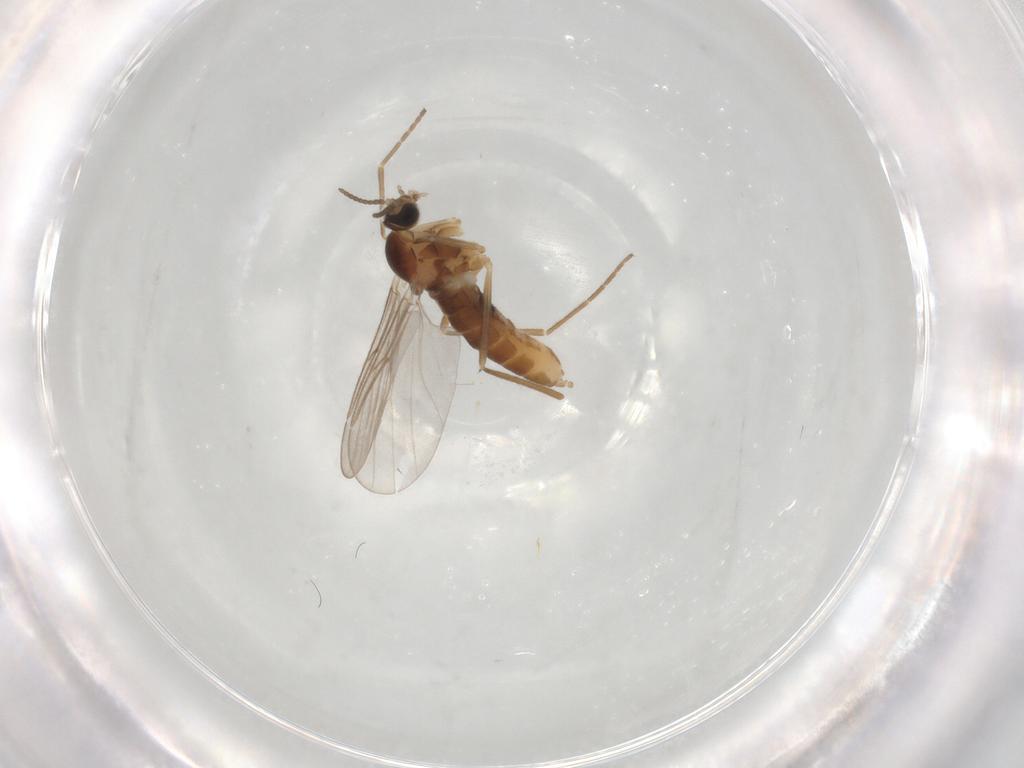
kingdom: Animalia
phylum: Arthropoda
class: Insecta
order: Diptera
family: Cecidomyiidae
